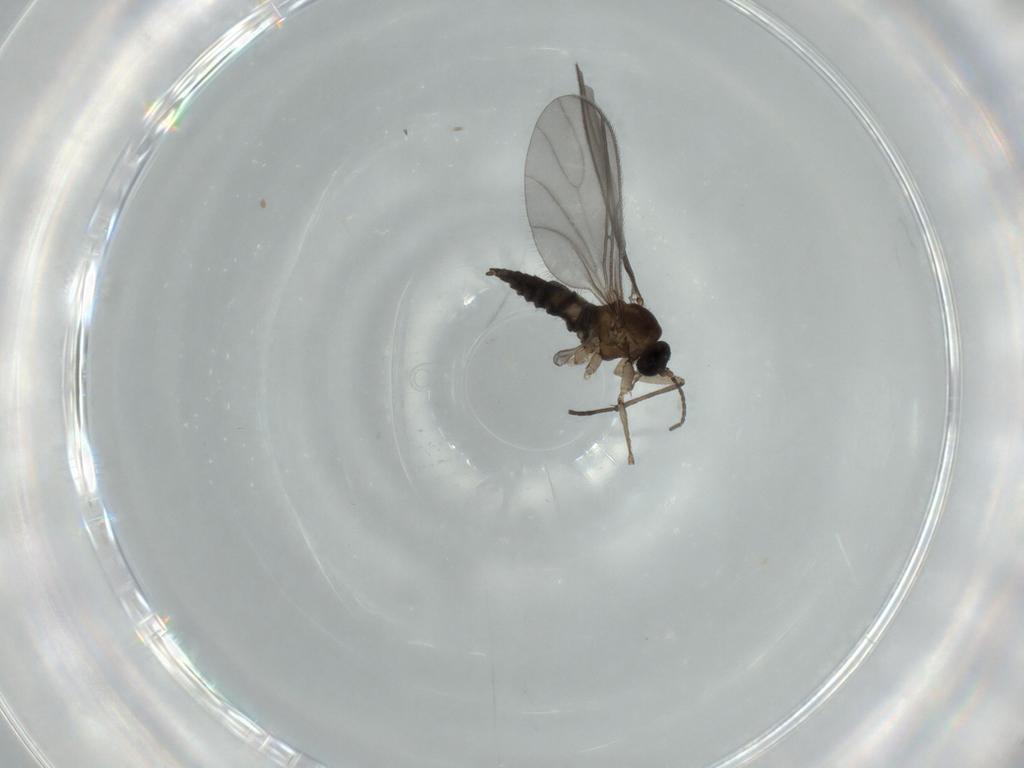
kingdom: Animalia
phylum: Arthropoda
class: Insecta
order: Diptera
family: Sciaridae
